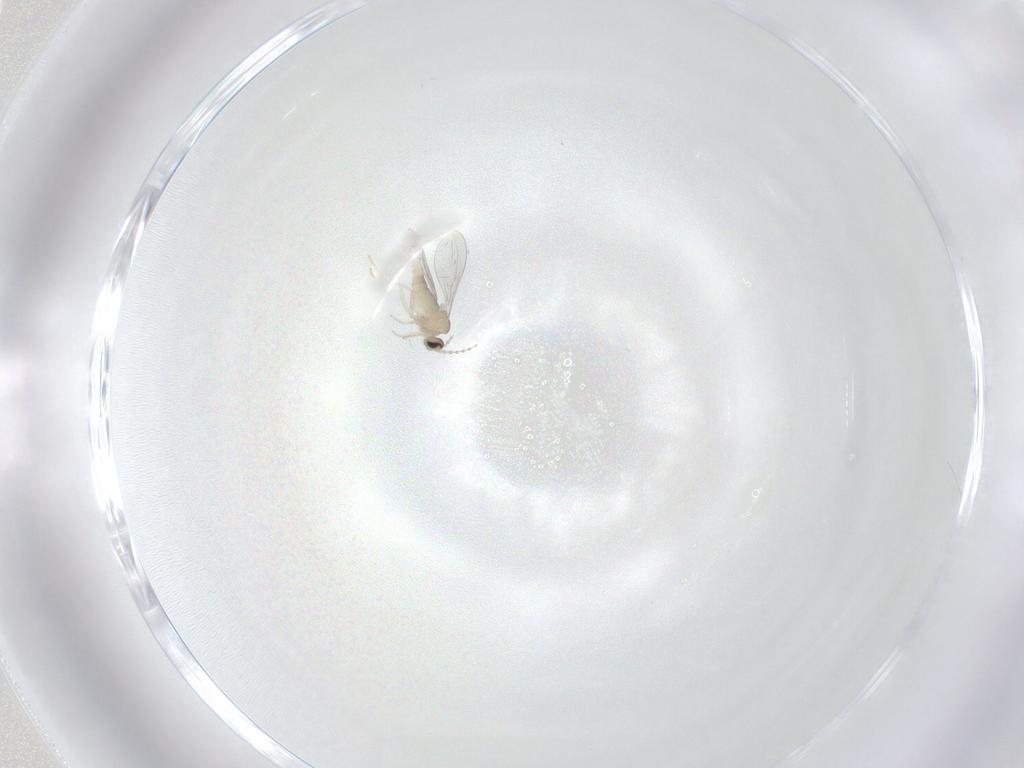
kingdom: Animalia
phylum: Arthropoda
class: Insecta
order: Diptera
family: Cecidomyiidae
